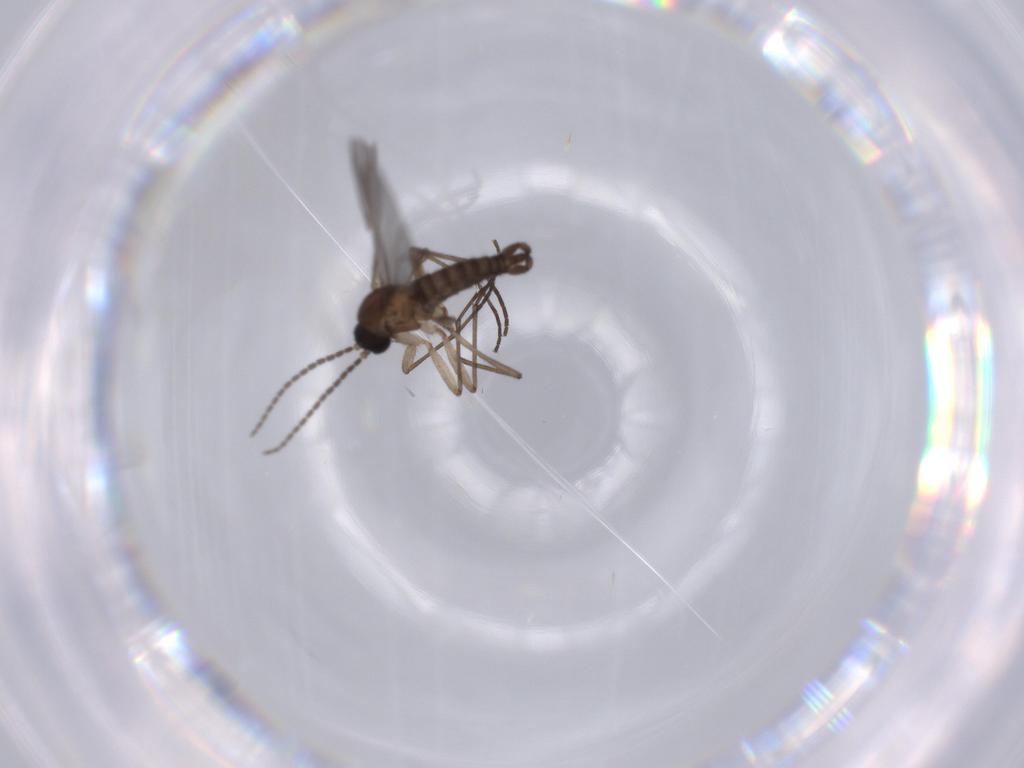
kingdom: Animalia
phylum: Arthropoda
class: Insecta
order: Diptera
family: Sciaridae
